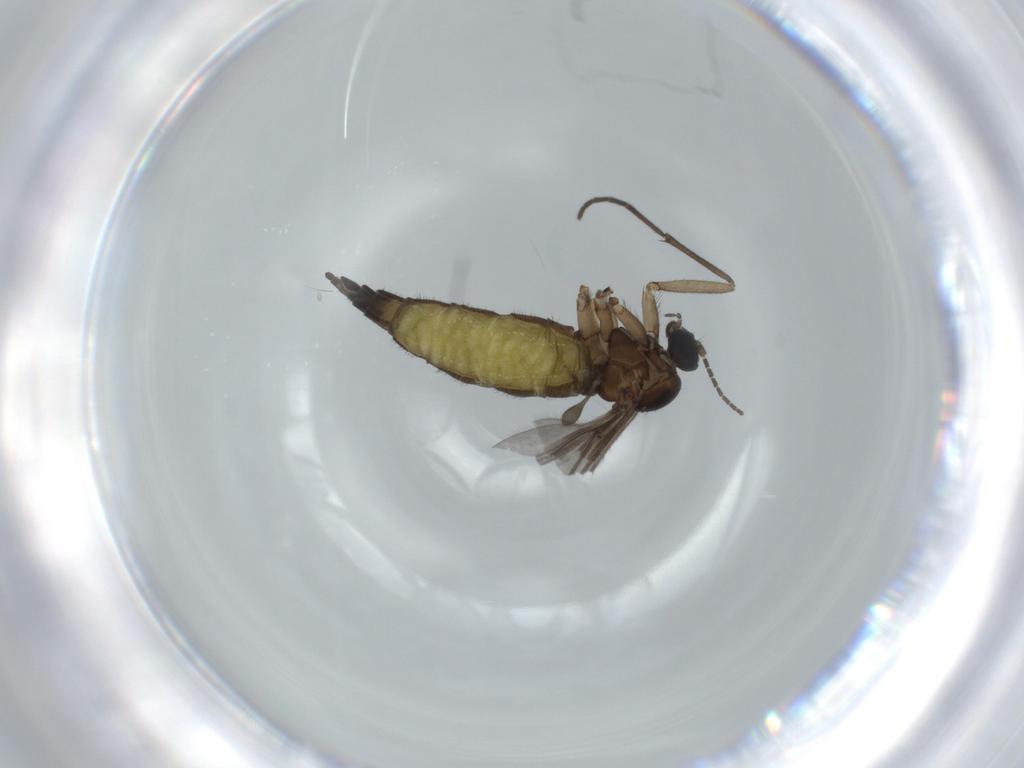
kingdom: Animalia
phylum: Arthropoda
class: Insecta
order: Diptera
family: Sciaridae
